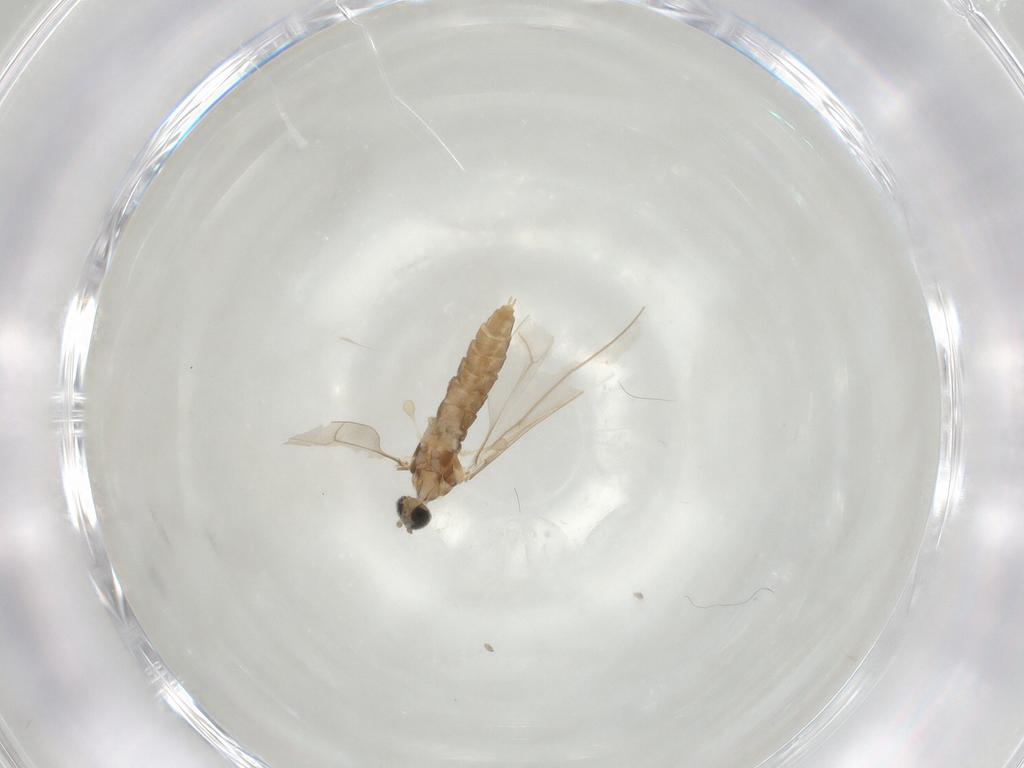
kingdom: Animalia
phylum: Arthropoda
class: Insecta
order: Diptera
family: Cecidomyiidae
